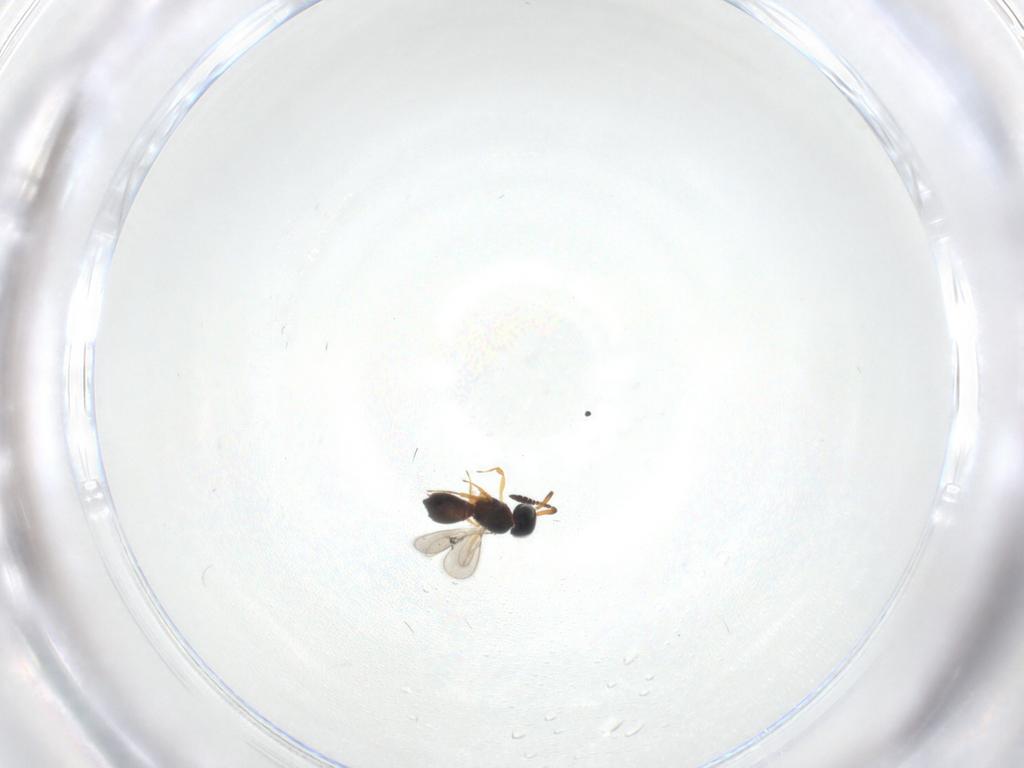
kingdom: Animalia
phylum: Arthropoda
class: Insecta
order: Hymenoptera
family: Scelionidae
